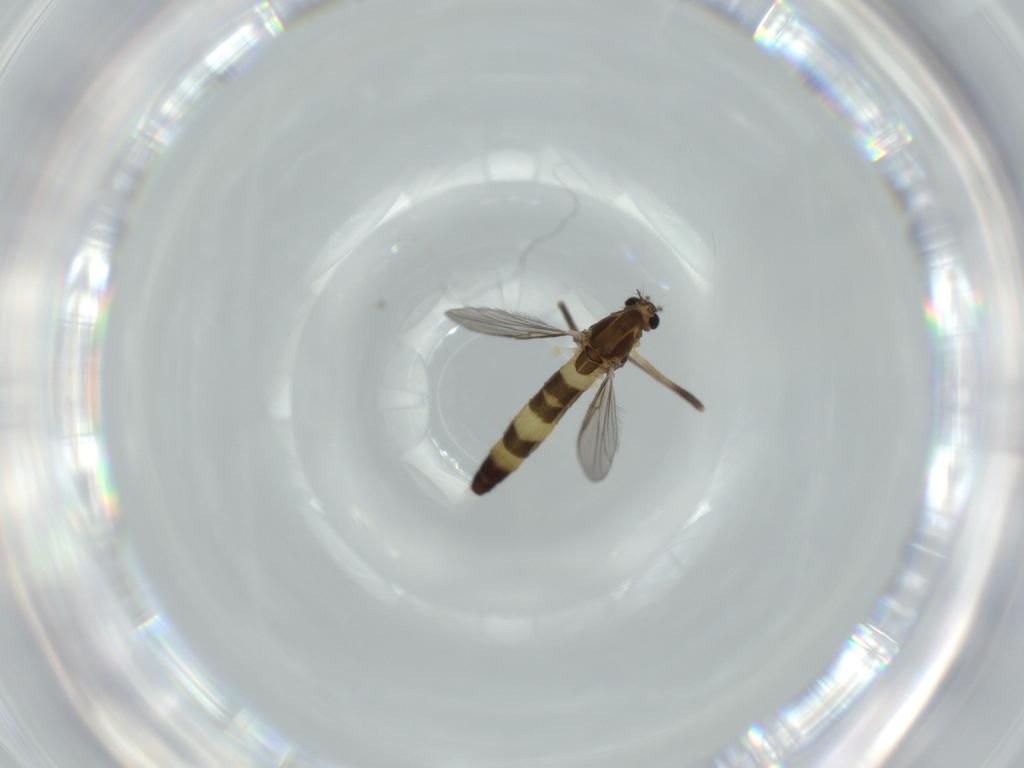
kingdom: Animalia
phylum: Arthropoda
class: Insecta
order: Diptera
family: Chironomidae
